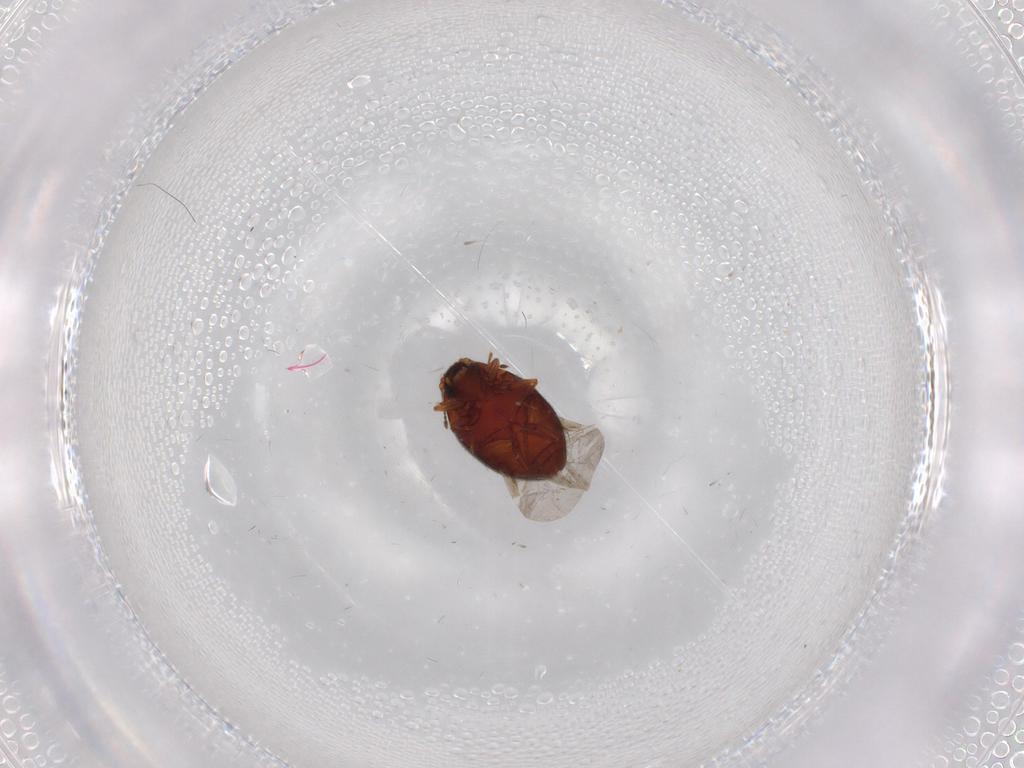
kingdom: Animalia
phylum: Arthropoda
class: Insecta
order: Coleoptera
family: Limnichidae
